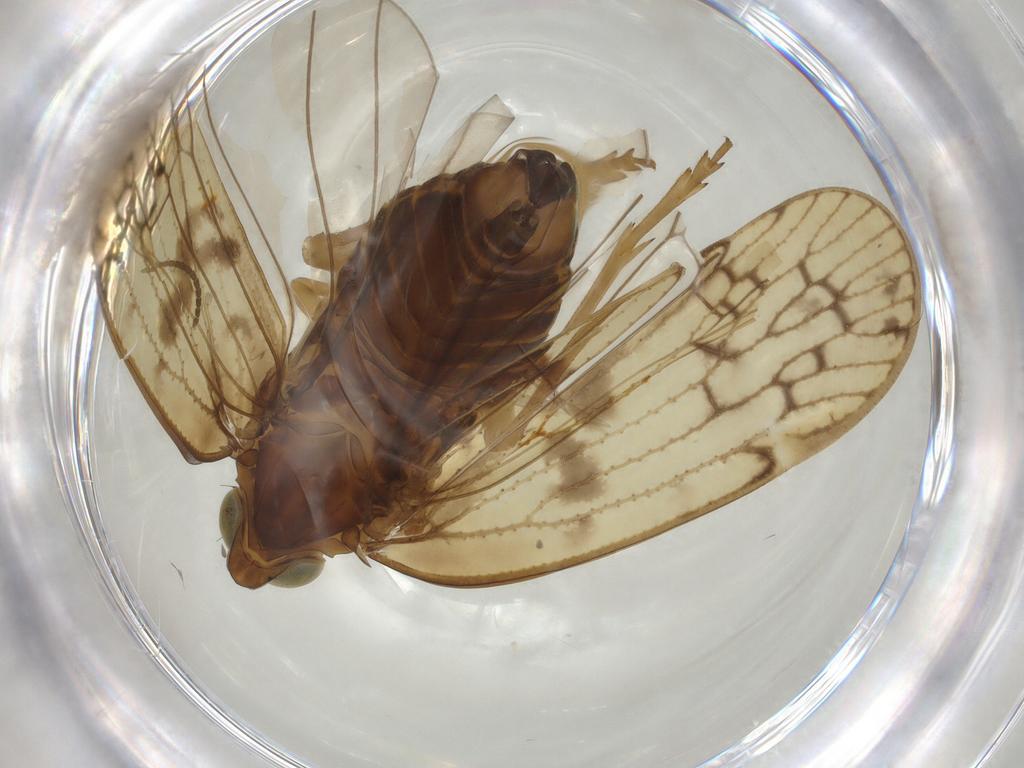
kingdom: Animalia
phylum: Arthropoda
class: Insecta
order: Hemiptera
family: Cixiidae
